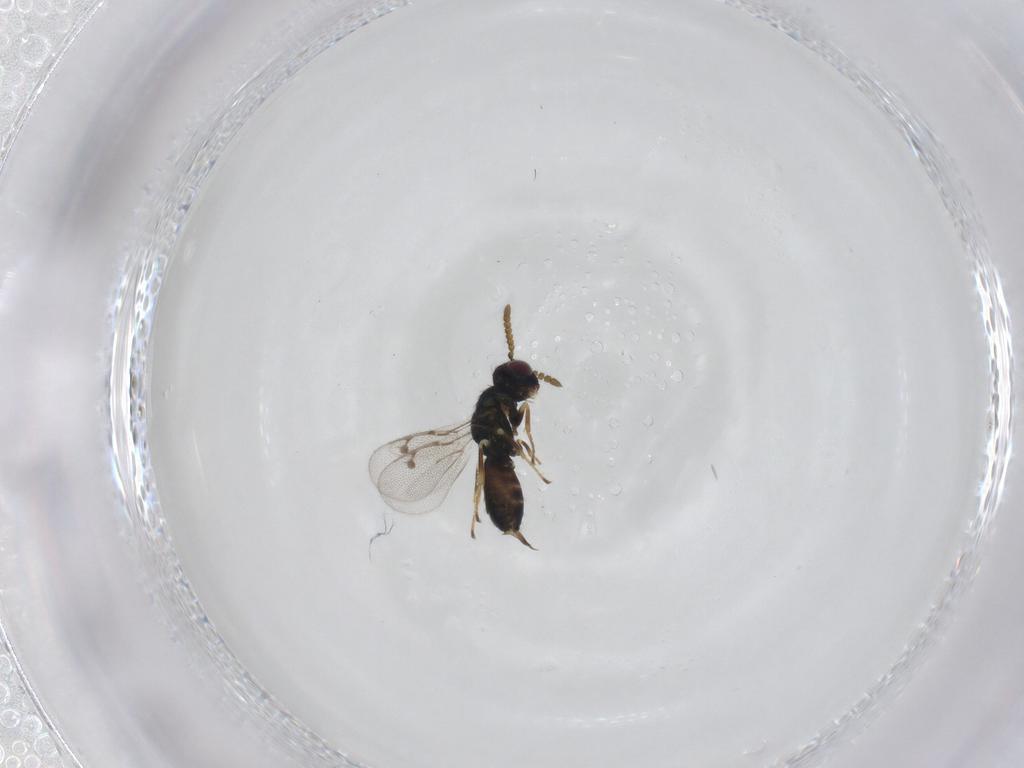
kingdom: Animalia
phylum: Arthropoda
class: Insecta
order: Hymenoptera
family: Pirenidae
